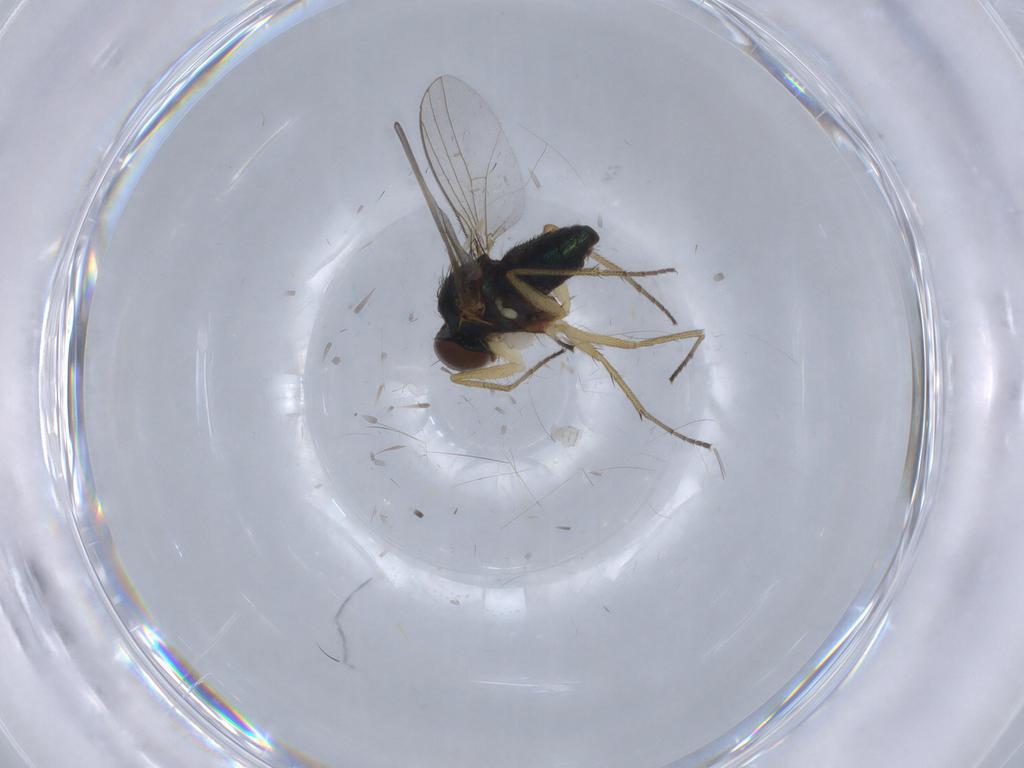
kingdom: Animalia
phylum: Arthropoda
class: Insecta
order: Diptera
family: Chironomidae
